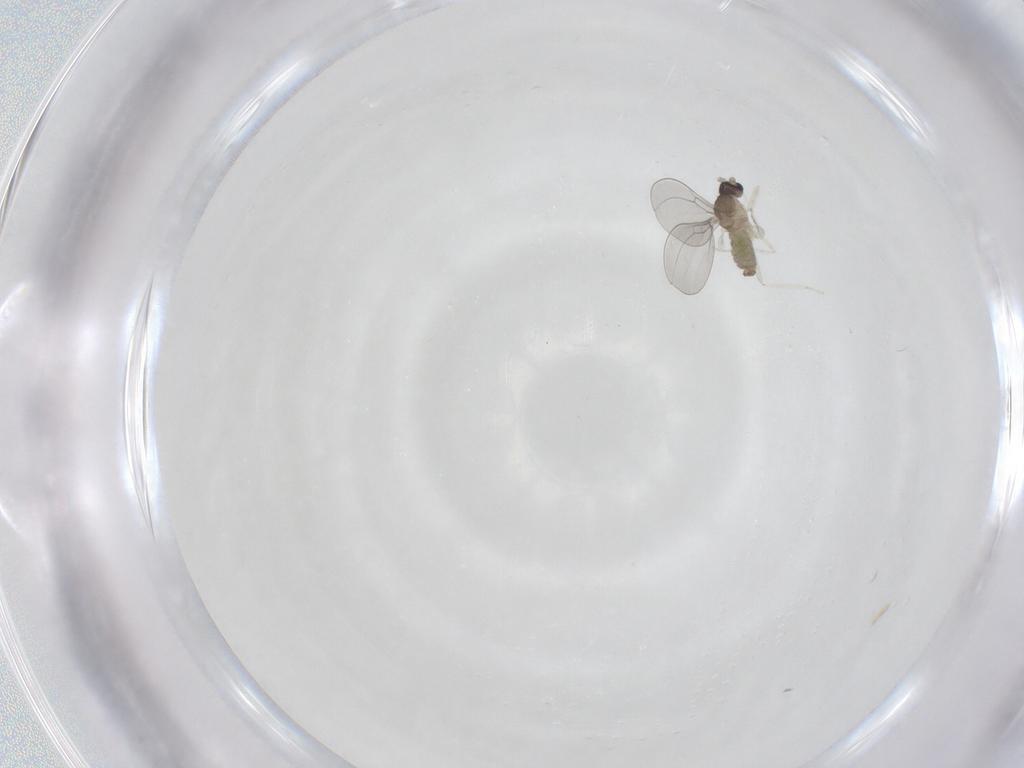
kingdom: Animalia
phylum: Arthropoda
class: Insecta
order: Diptera
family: Cecidomyiidae
